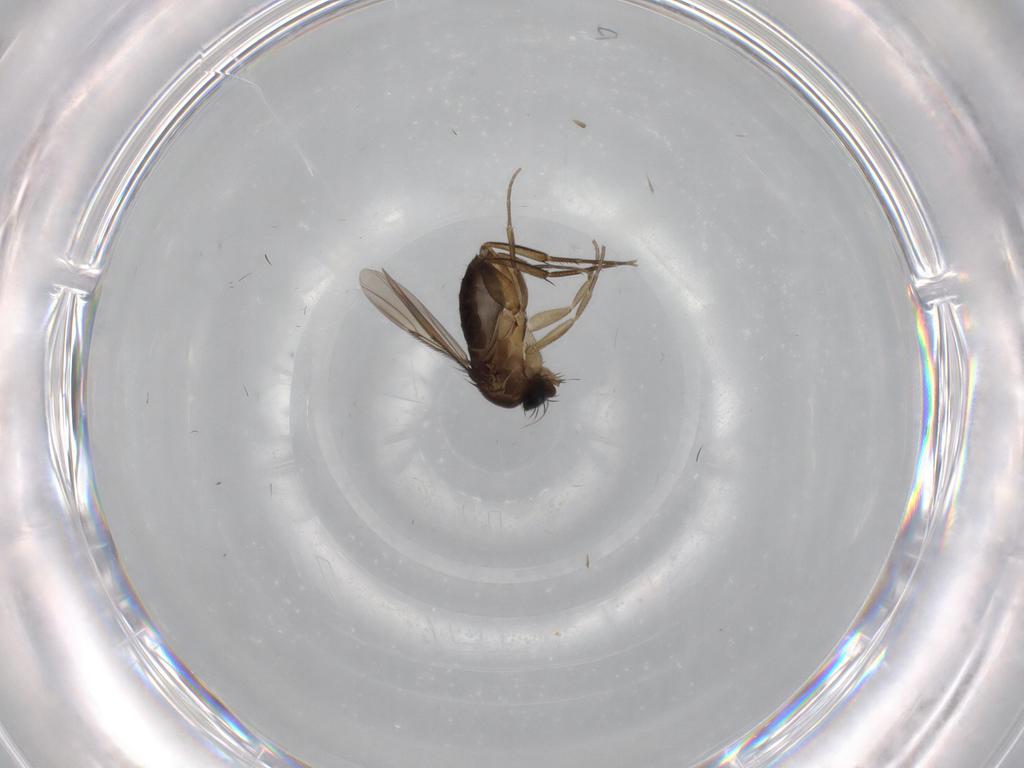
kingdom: Animalia
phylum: Arthropoda
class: Insecta
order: Diptera
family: Phoridae
